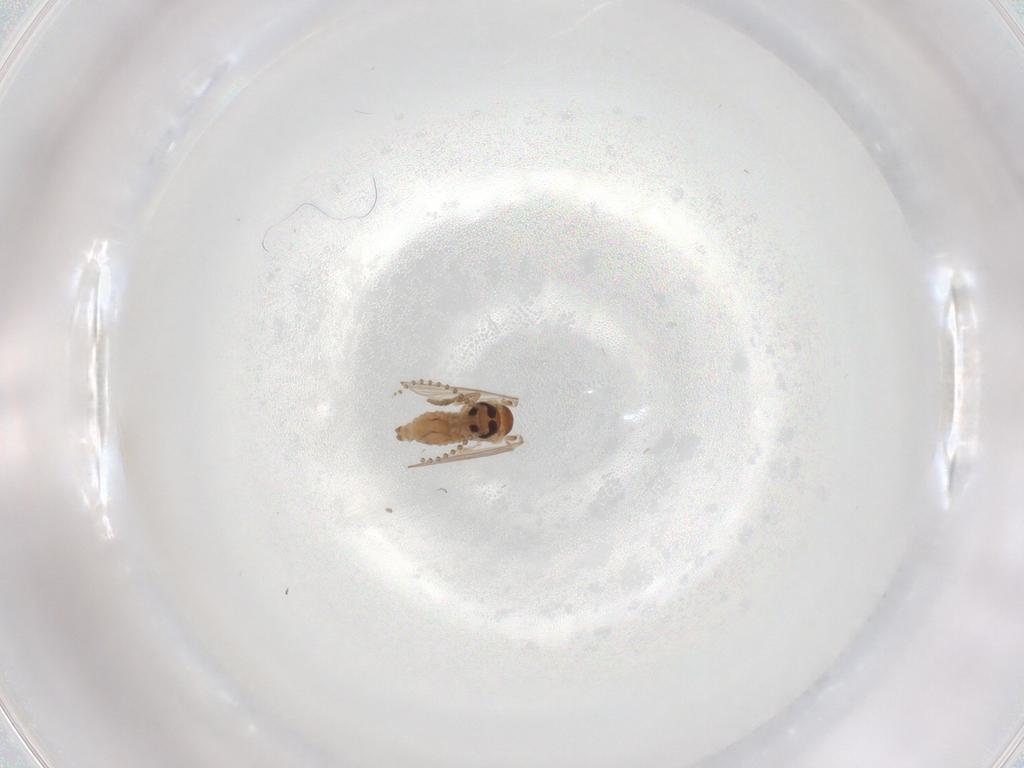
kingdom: Animalia
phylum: Arthropoda
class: Insecta
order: Diptera
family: Psychodidae
